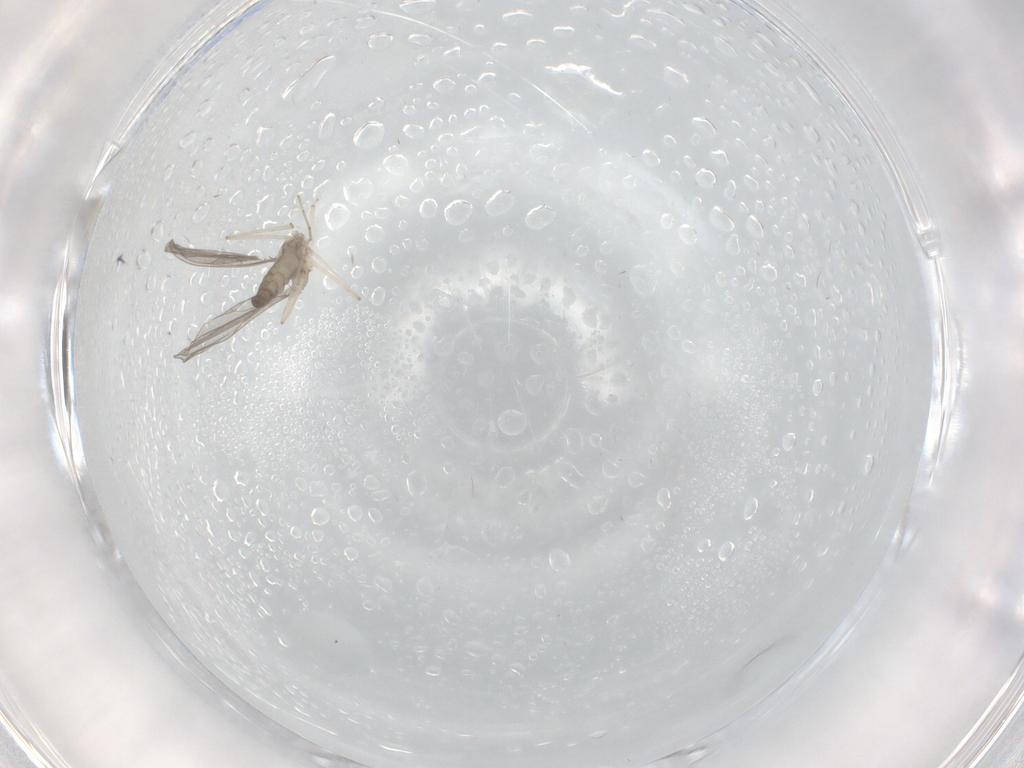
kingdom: Animalia
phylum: Arthropoda
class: Insecta
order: Diptera
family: Cecidomyiidae
